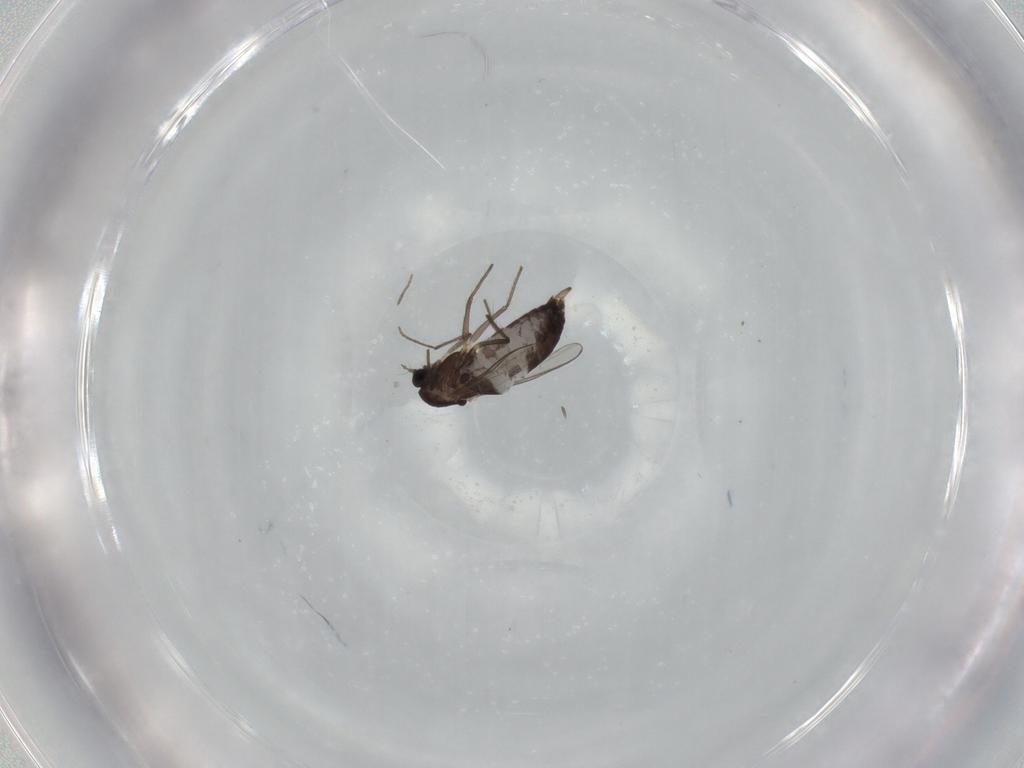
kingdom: Animalia
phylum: Arthropoda
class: Insecta
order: Diptera
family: Chironomidae
